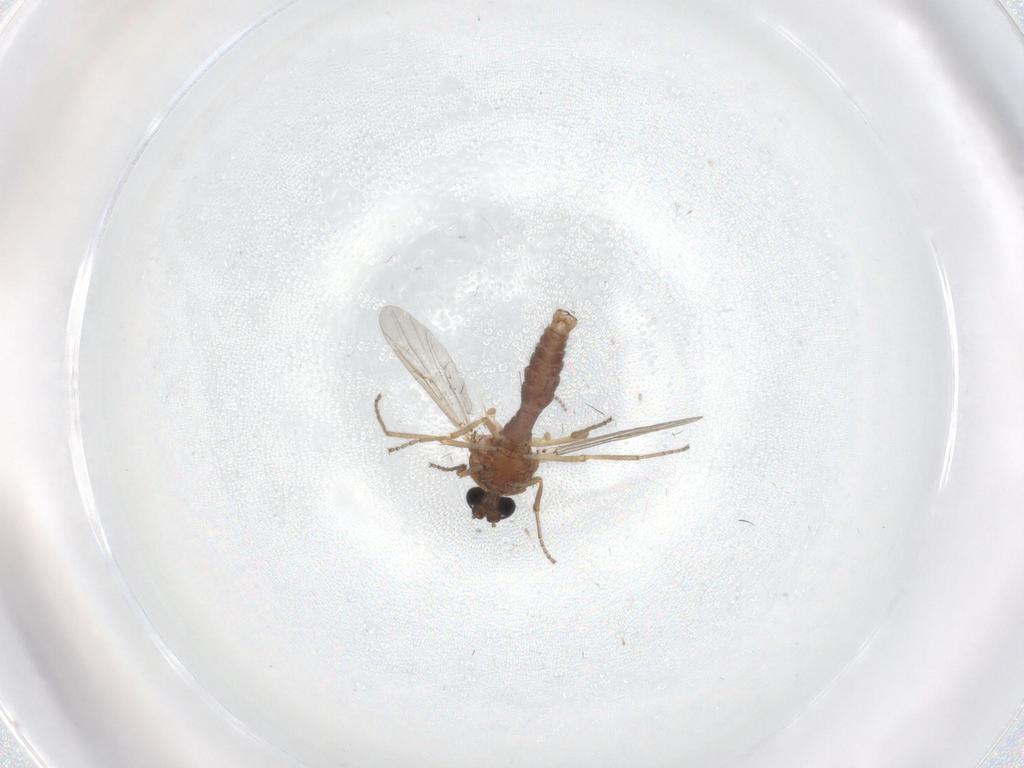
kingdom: Animalia
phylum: Arthropoda
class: Insecta
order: Diptera
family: Ceratopogonidae
